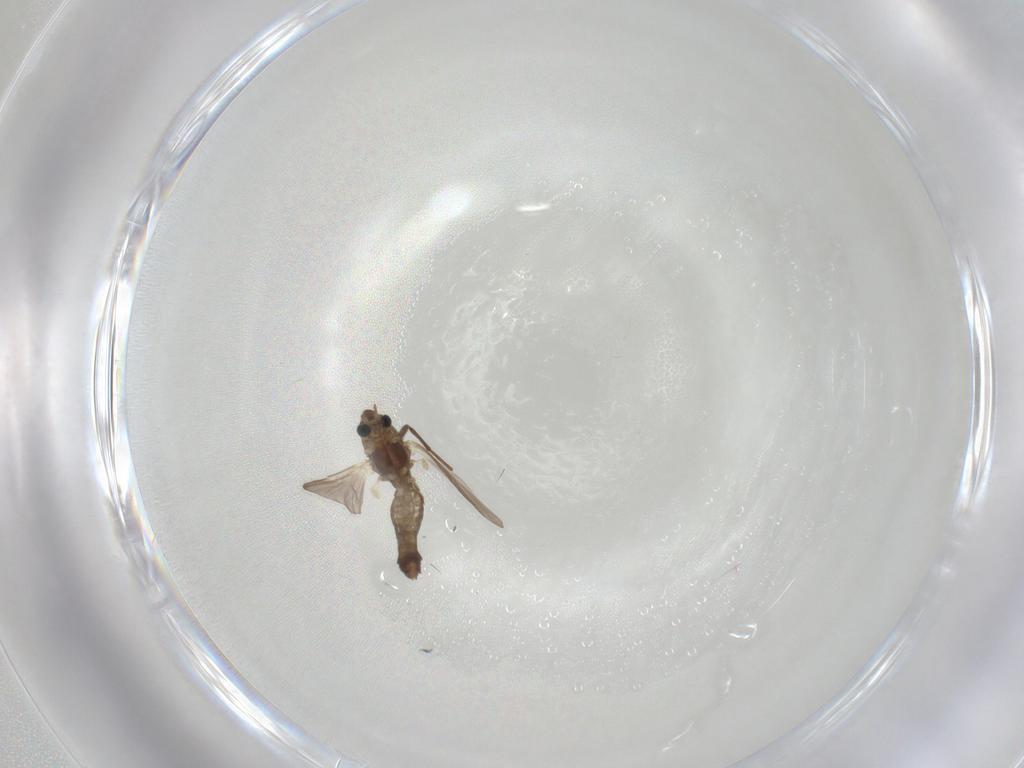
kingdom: Animalia
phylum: Arthropoda
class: Insecta
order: Diptera
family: Chironomidae
